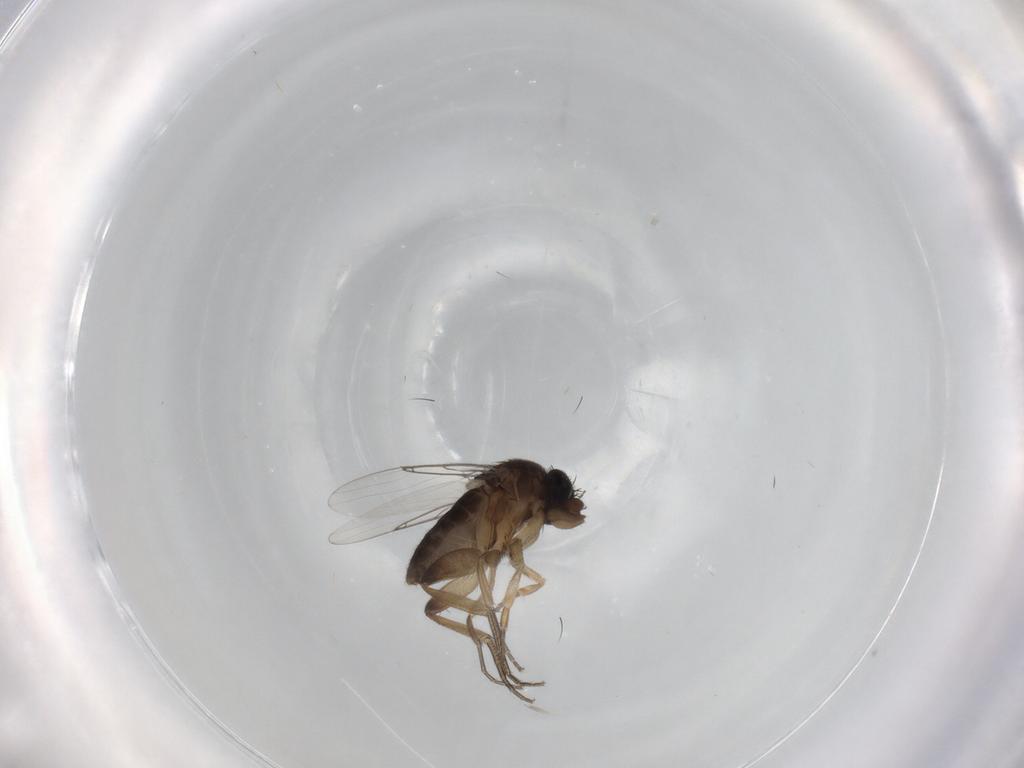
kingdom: Animalia
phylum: Arthropoda
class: Insecta
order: Diptera
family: Phoridae
